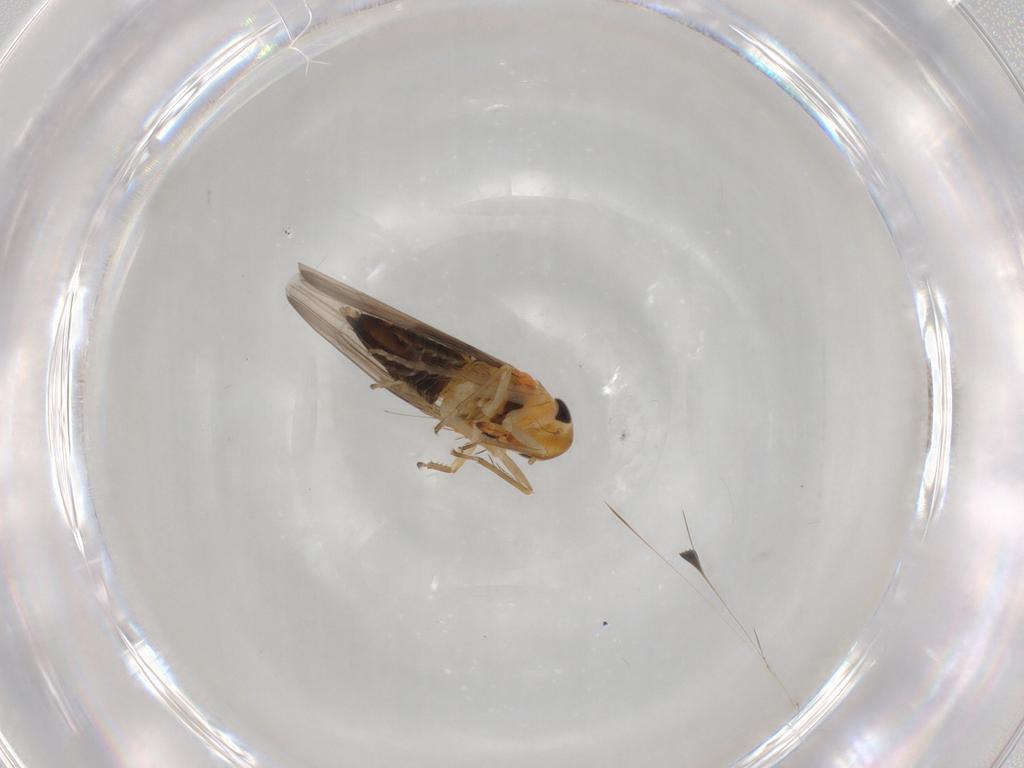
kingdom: Animalia
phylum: Arthropoda
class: Insecta
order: Hemiptera
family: Cicadellidae
